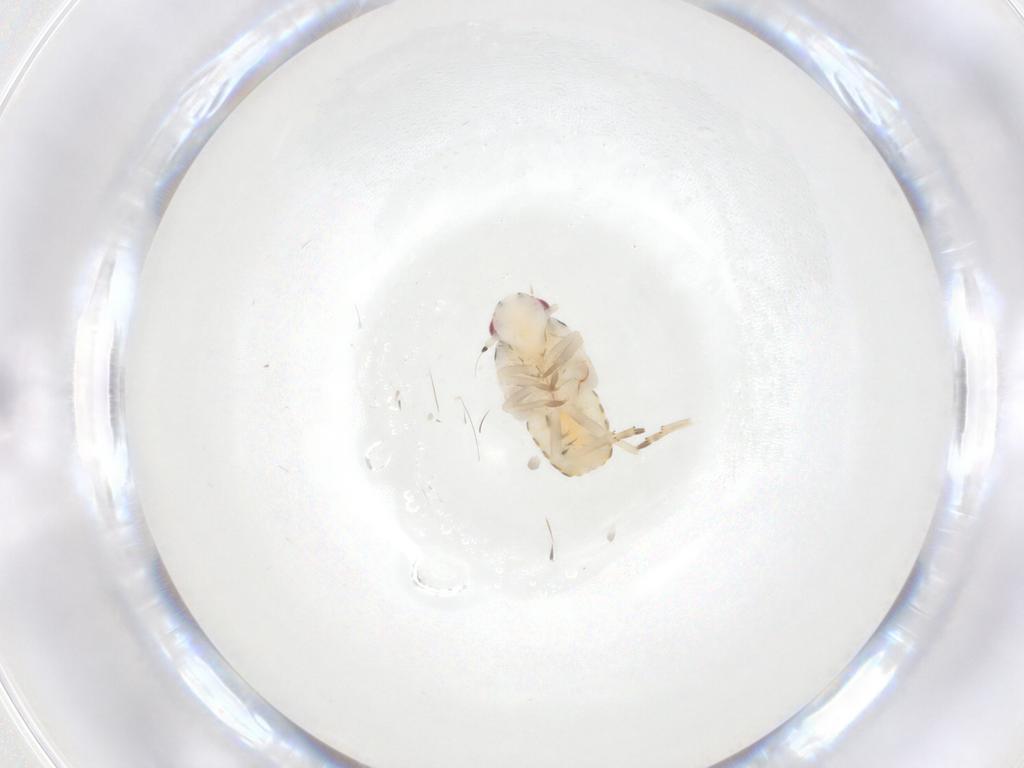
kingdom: Animalia
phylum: Arthropoda
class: Insecta
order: Hemiptera
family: Flatidae
